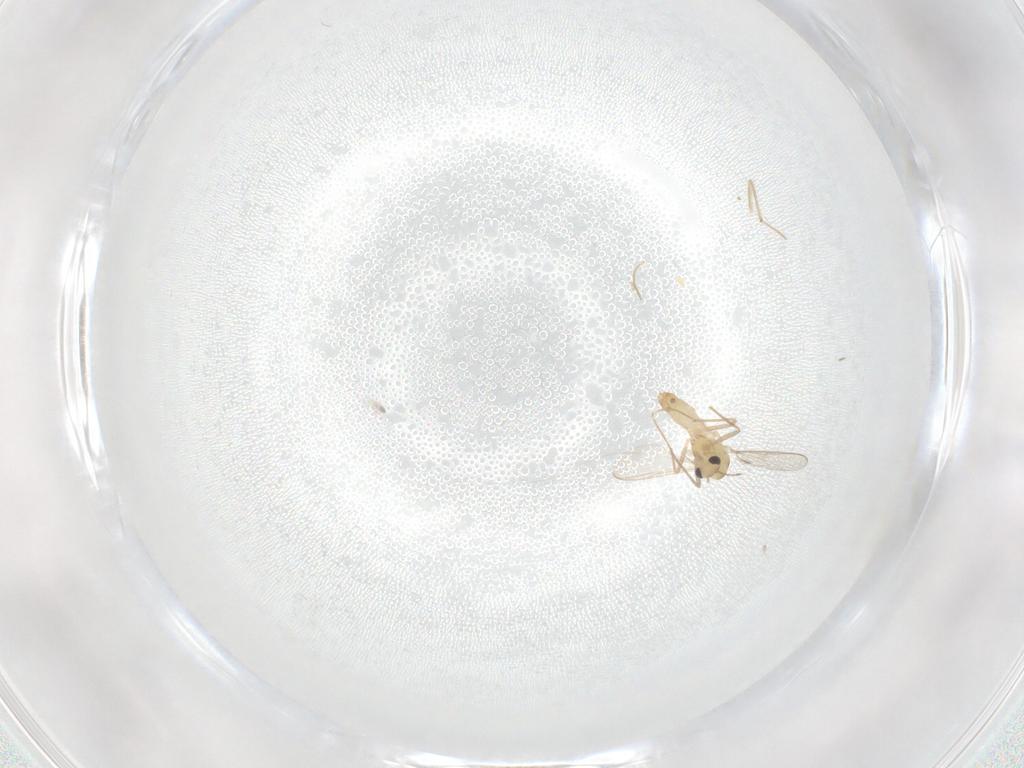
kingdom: Animalia
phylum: Arthropoda
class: Insecta
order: Diptera
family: Chironomidae
